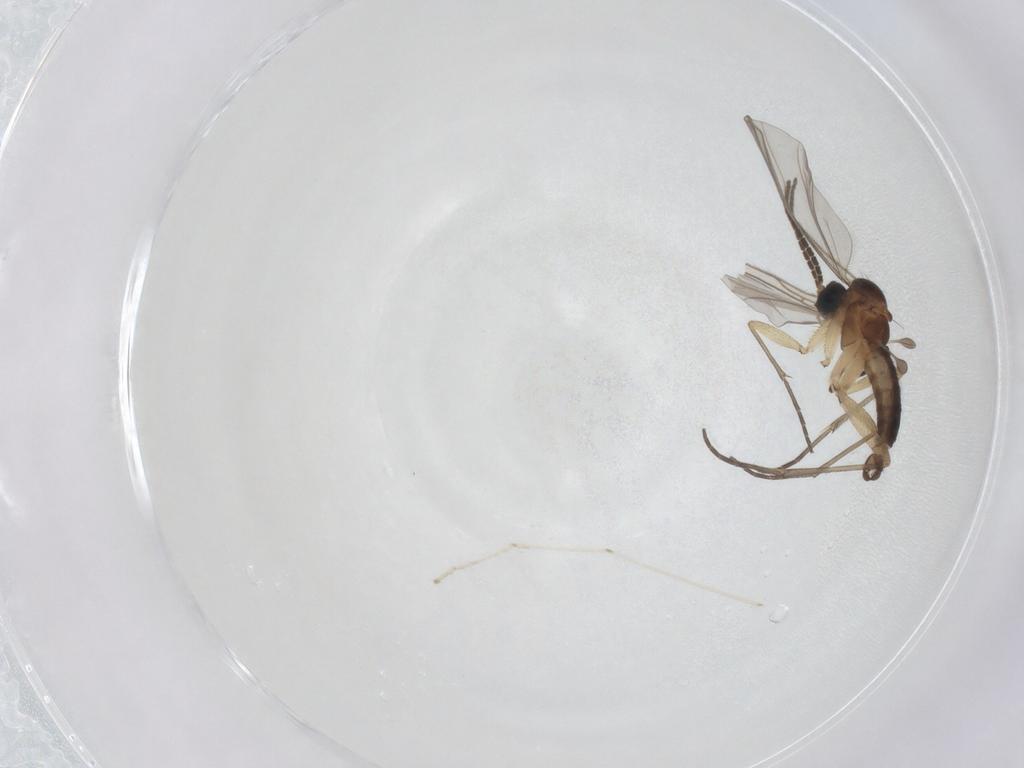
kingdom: Animalia
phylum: Arthropoda
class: Insecta
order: Diptera
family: Sciaridae
